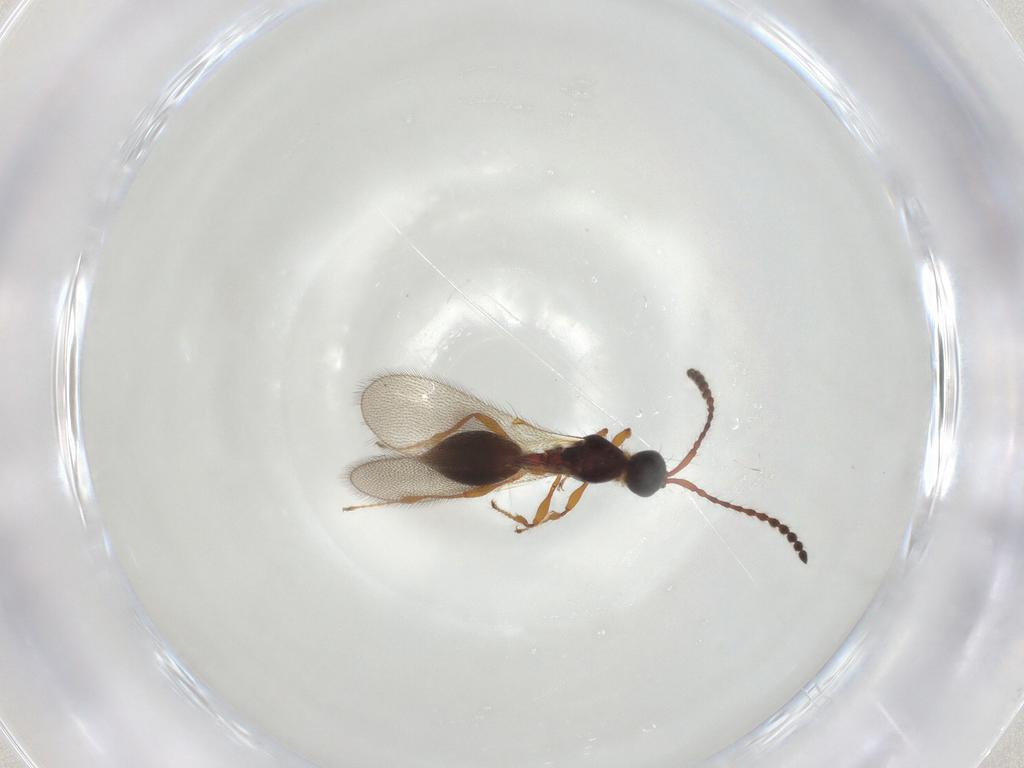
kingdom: Animalia
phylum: Arthropoda
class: Insecta
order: Hymenoptera
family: Diapriidae
